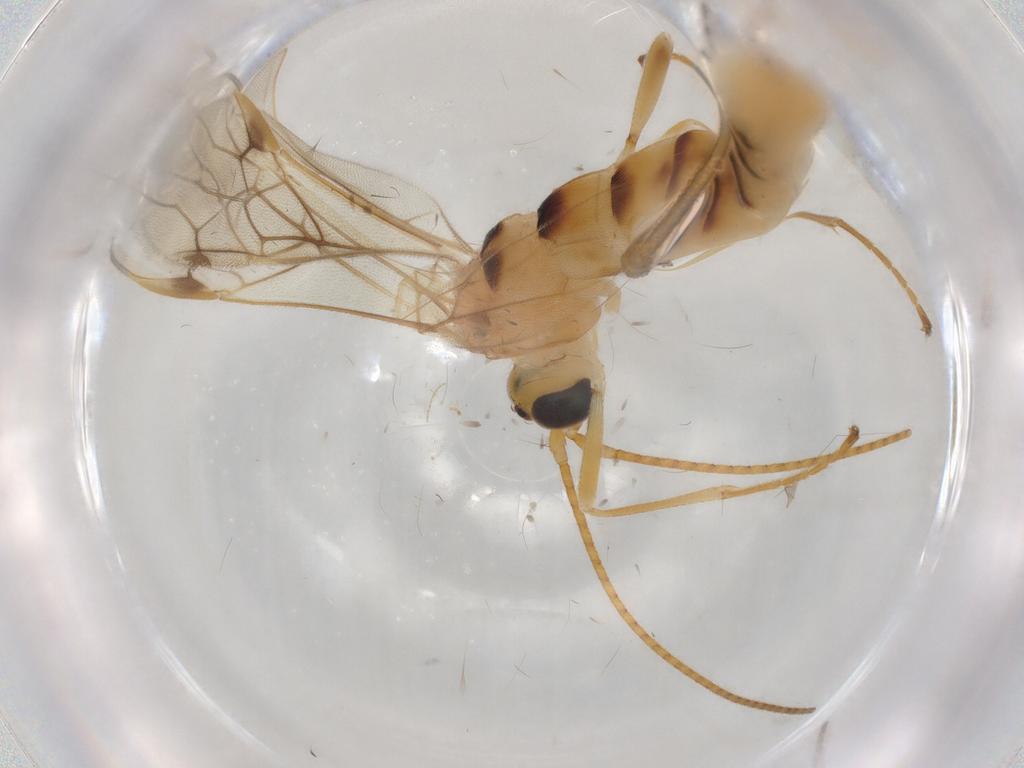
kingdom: Animalia
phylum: Arthropoda
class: Insecta
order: Hymenoptera
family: Braconidae
